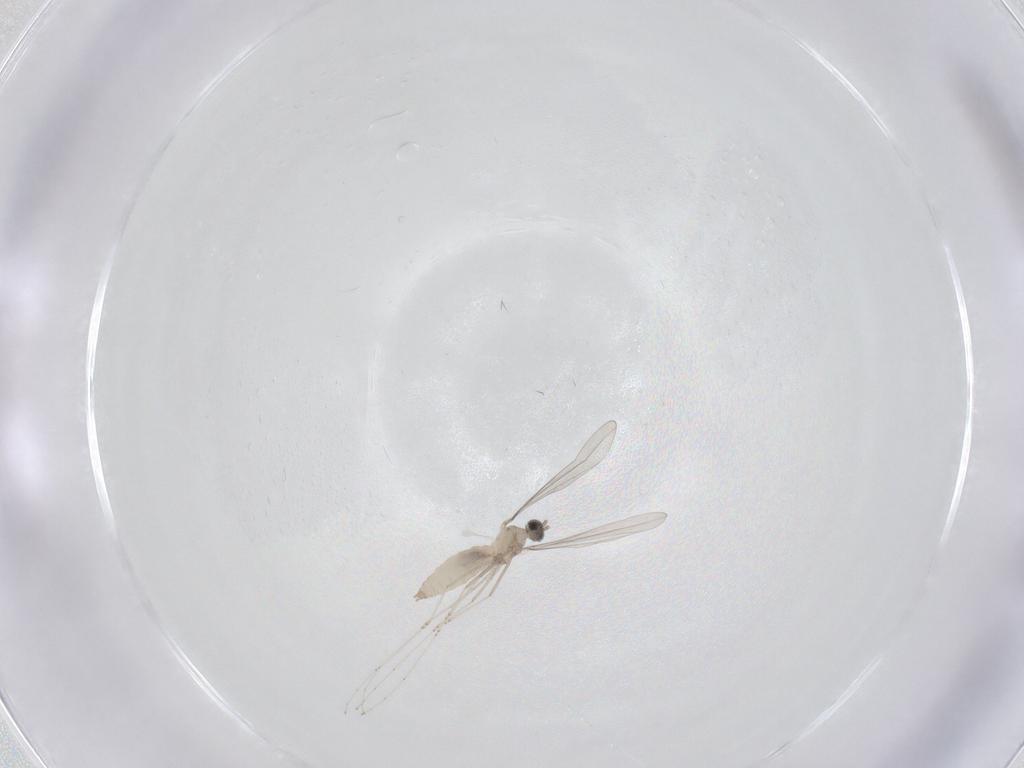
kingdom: Animalia
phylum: Arthropoda
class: Insecta
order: Diptera
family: Cecidomyiidae
